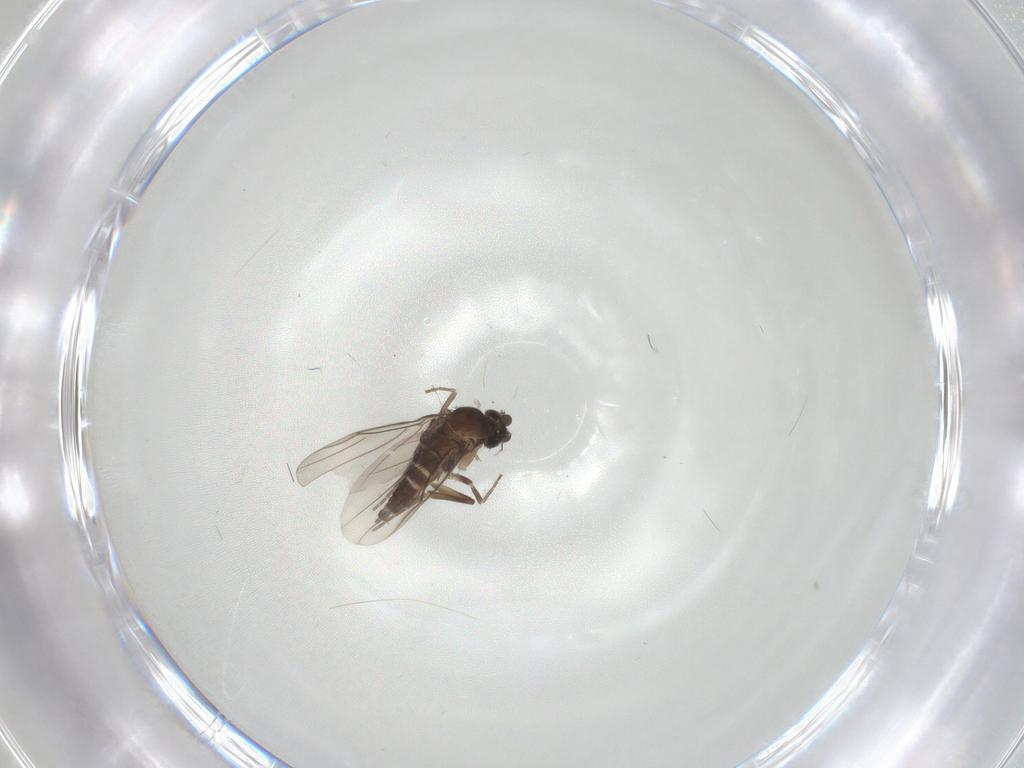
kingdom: Animalia
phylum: Arthropoda
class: Insecta
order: Diptera
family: Phoridae
